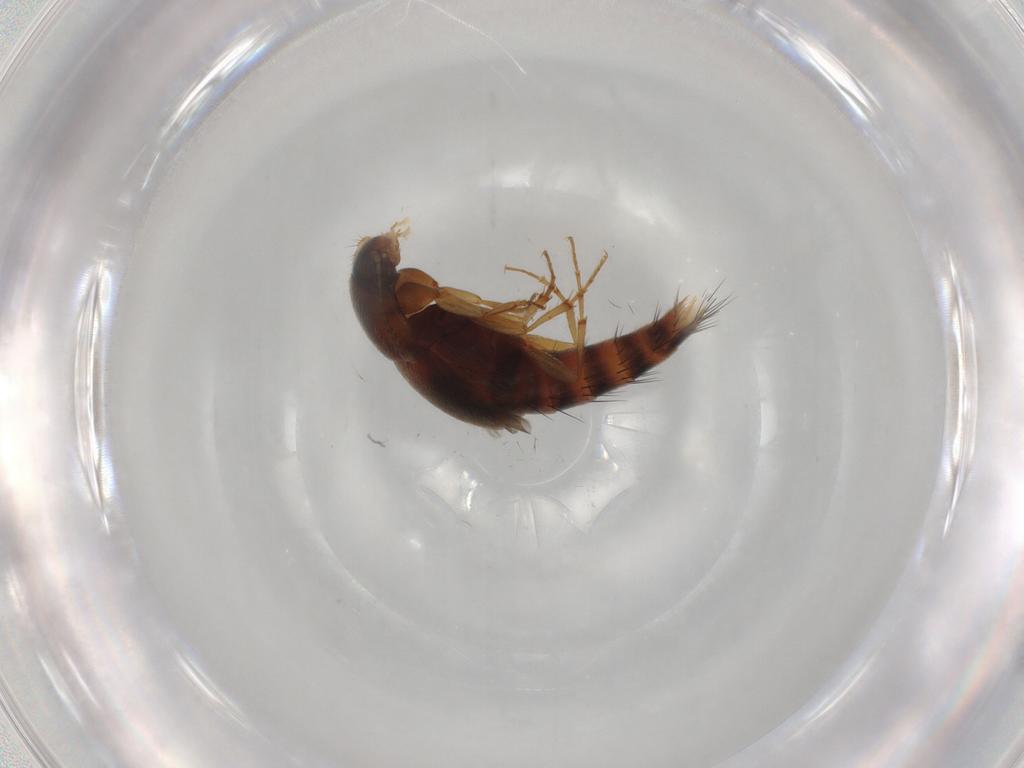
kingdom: Animalia
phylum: Arthropoda
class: Insecta
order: Coleoptera
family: Staphylinidae
